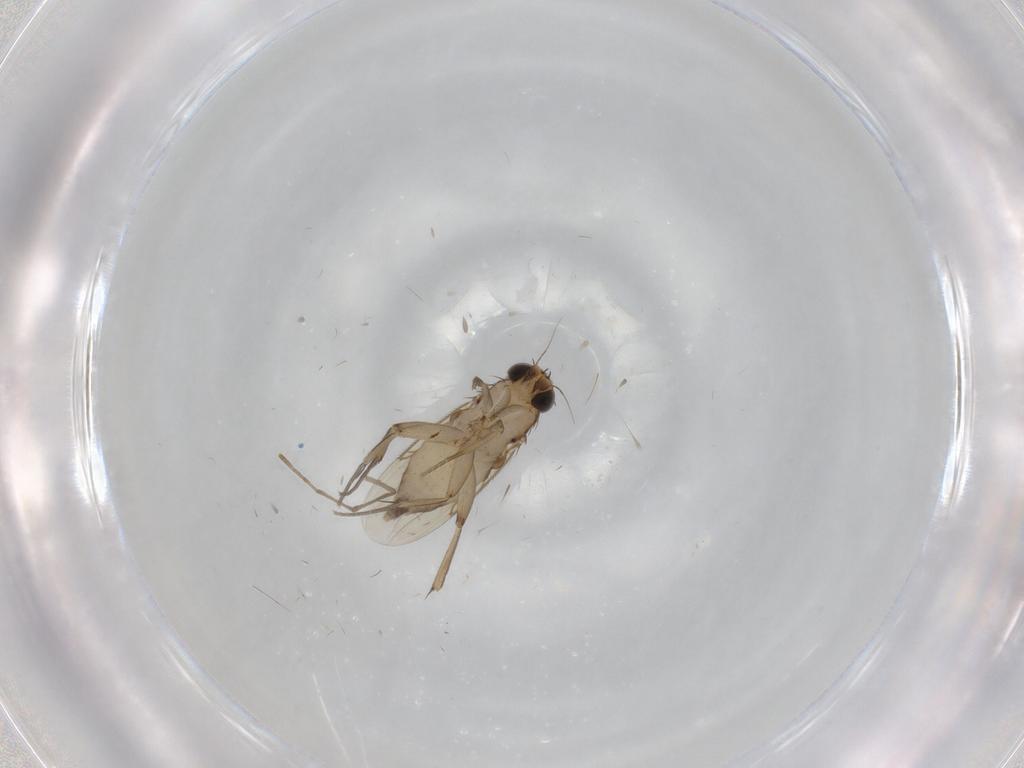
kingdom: Animalia
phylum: Arthropoda
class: Insecta
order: Diptera
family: Phoridae
